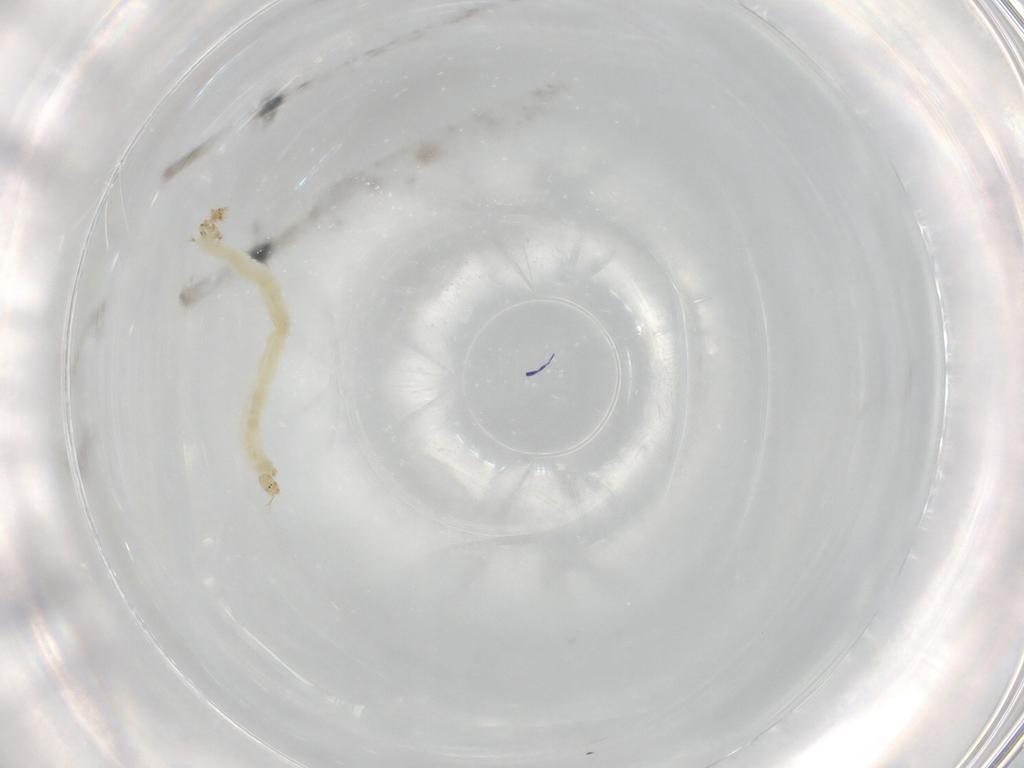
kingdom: Animalia
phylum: Arthropoda
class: Insecta
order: Diptera
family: Chironomidae
